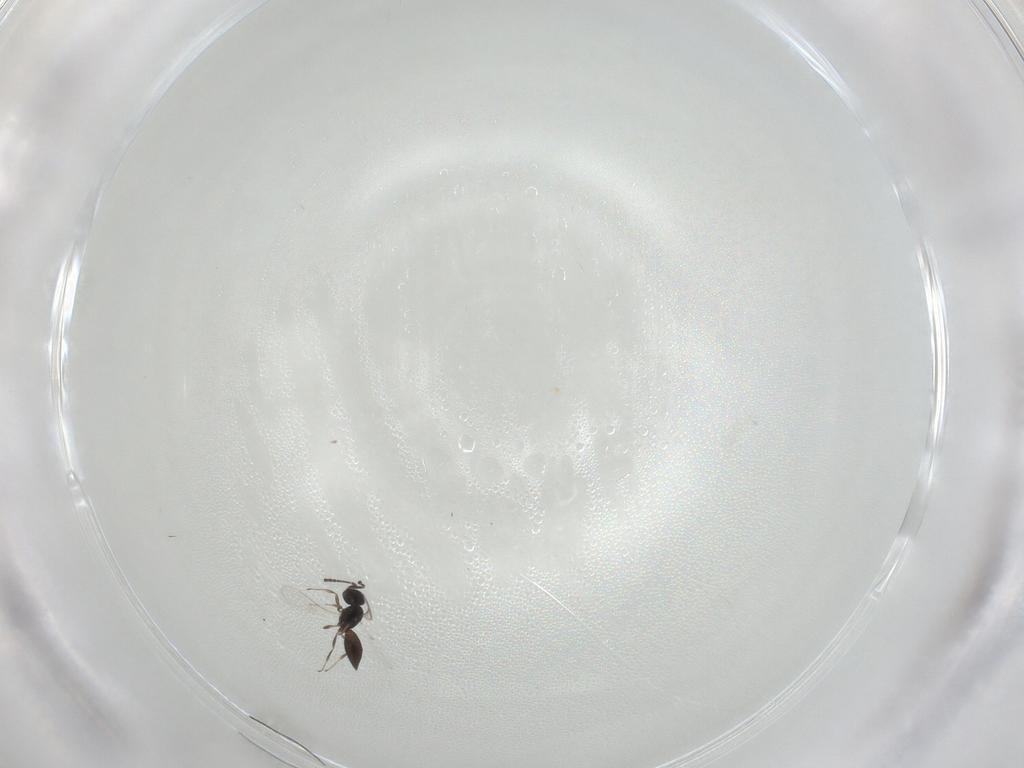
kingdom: Animalia
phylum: Arthropoda
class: Insecta
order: Hymenoptera
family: Scelionidae
